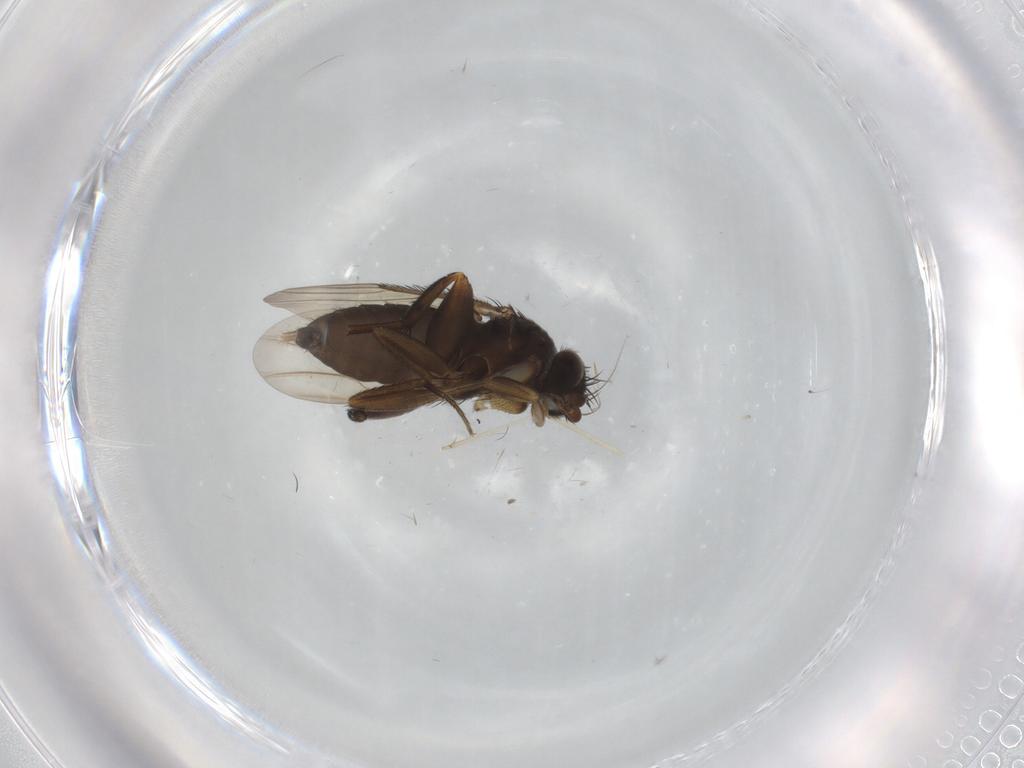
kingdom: Animalia
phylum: Arthropoda
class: Insecta
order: Diptera
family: Phoridae
